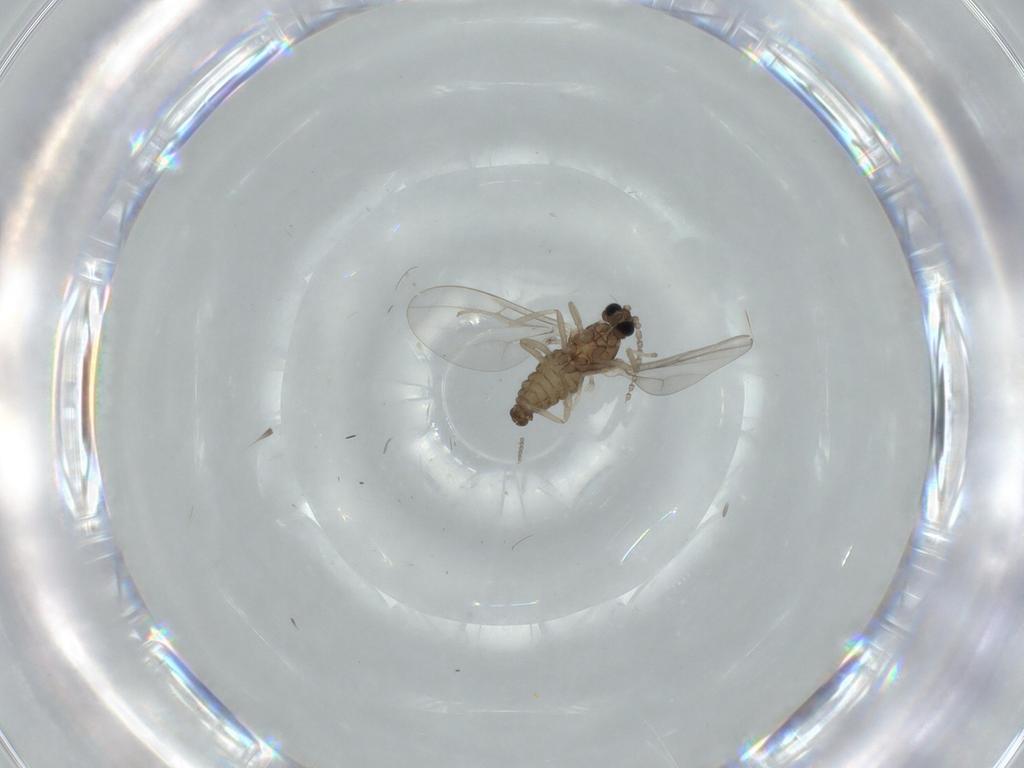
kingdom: Animalia
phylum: Arthropoda
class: Insecta
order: Diptera
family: Cecidomyiidae
